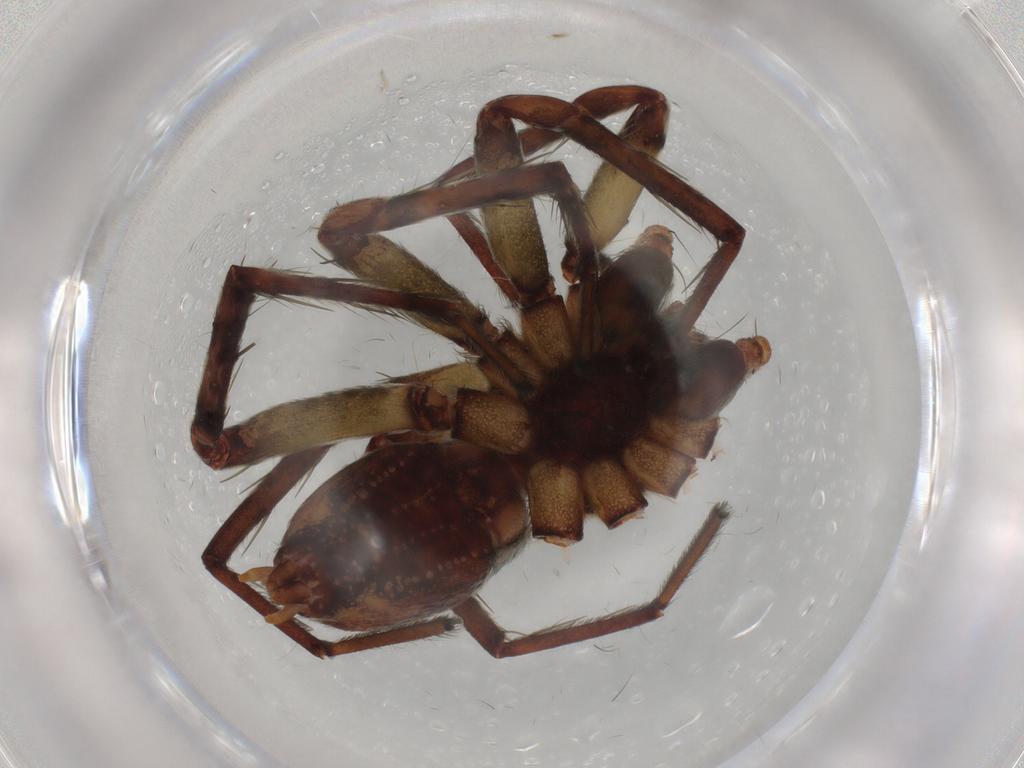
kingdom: Animalia
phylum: Arthropoda
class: Arachnida
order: Araneae
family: Anyphaenidae
